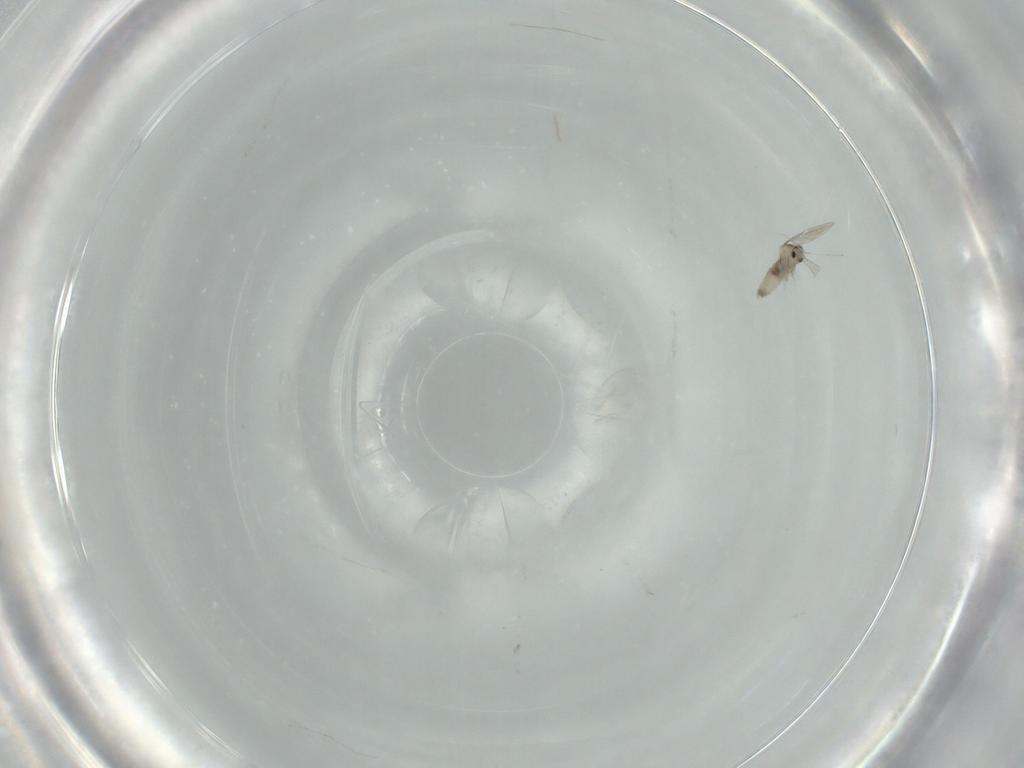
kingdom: Animalia
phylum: Arthropoda
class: Insecta
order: Diptera
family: Cecidomyiidae
